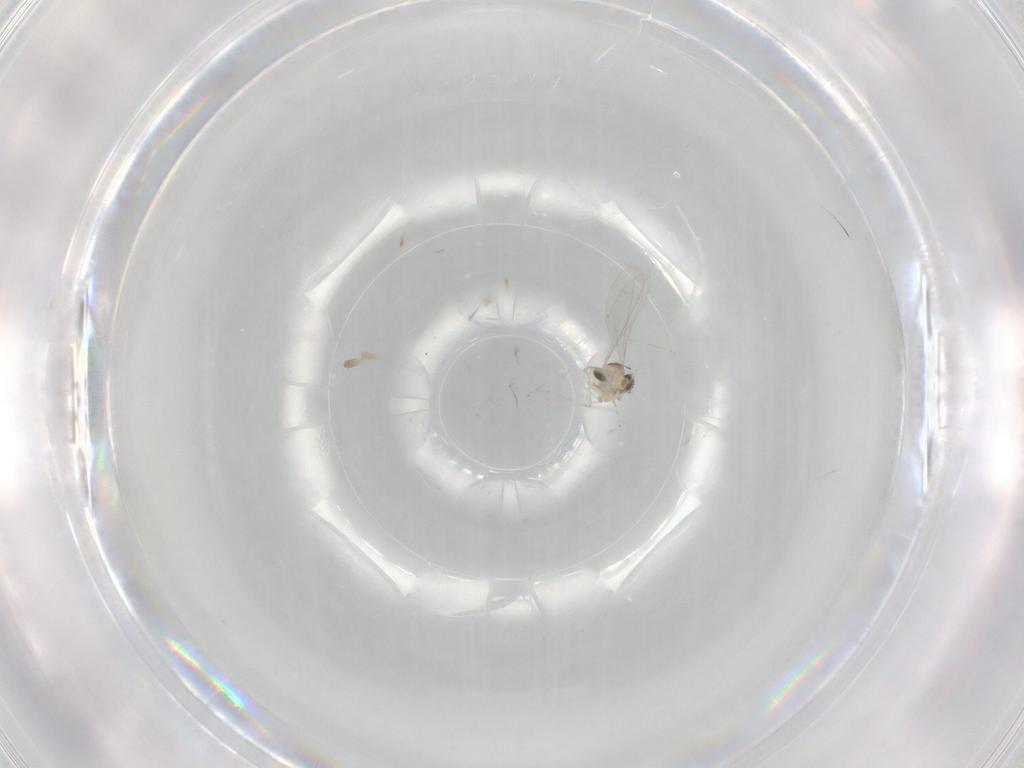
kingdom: Animalia
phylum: Arthropoda
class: Insecta
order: Diptera
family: Cecidomyiidae
